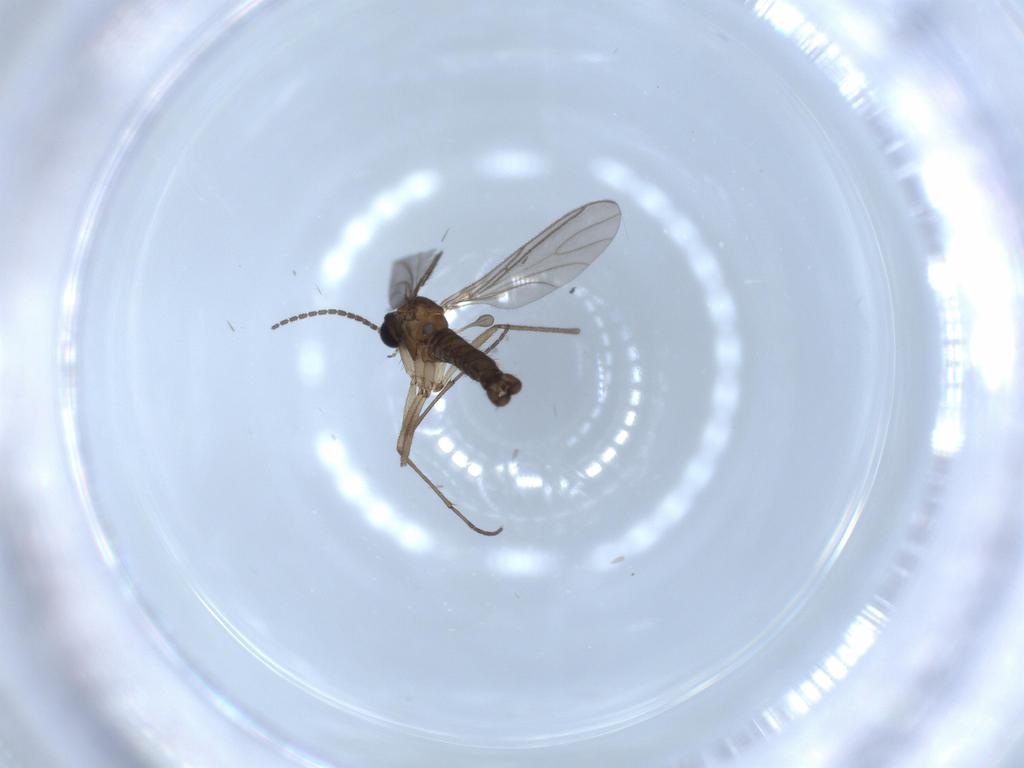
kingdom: Animalia
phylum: Arthropoda
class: Insecta
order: Diptera
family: Sciaridae
